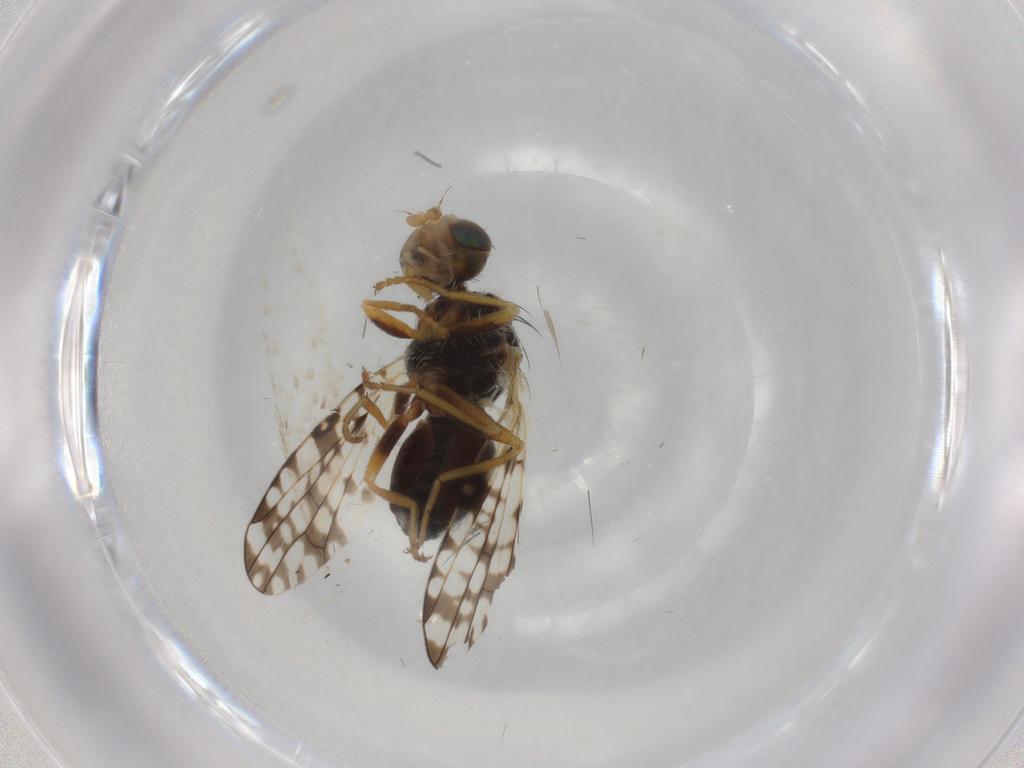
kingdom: Animalia
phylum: Arthropoda
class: Insecta
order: Diptera
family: Tephritidae
